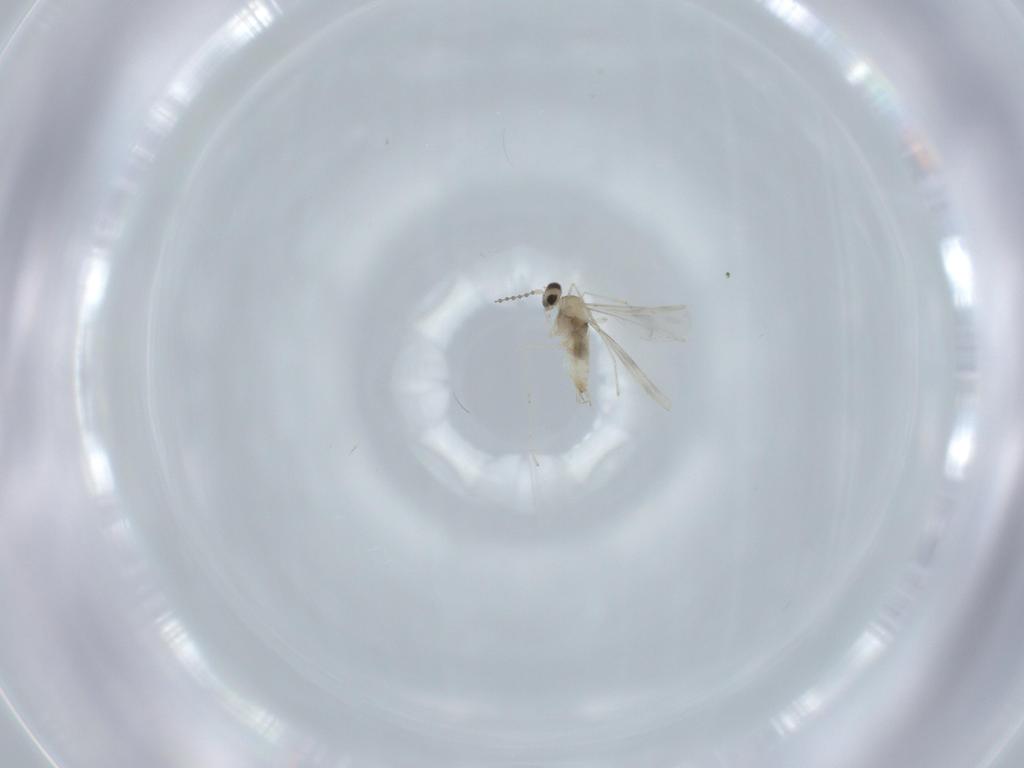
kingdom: Animalia
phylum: Arthropoda
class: Insecta
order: Diptera
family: Cecidomyiidae
